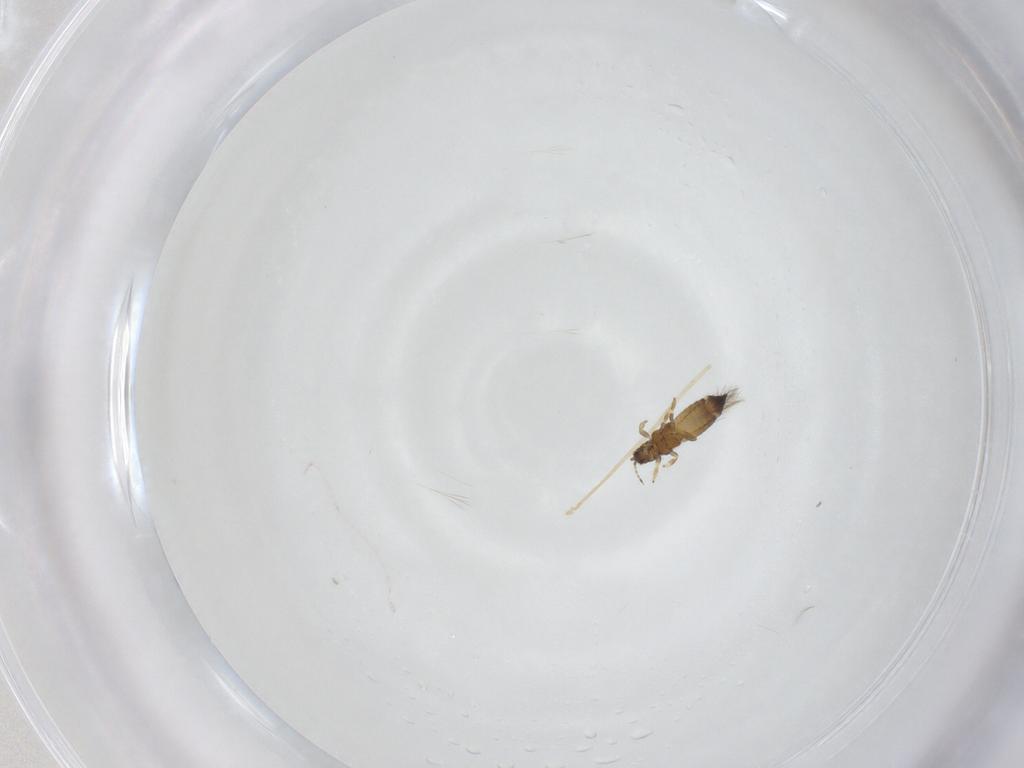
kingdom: Animalia
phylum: Arthropoda
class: Insecta
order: Thysanoptera
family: Thripidae
